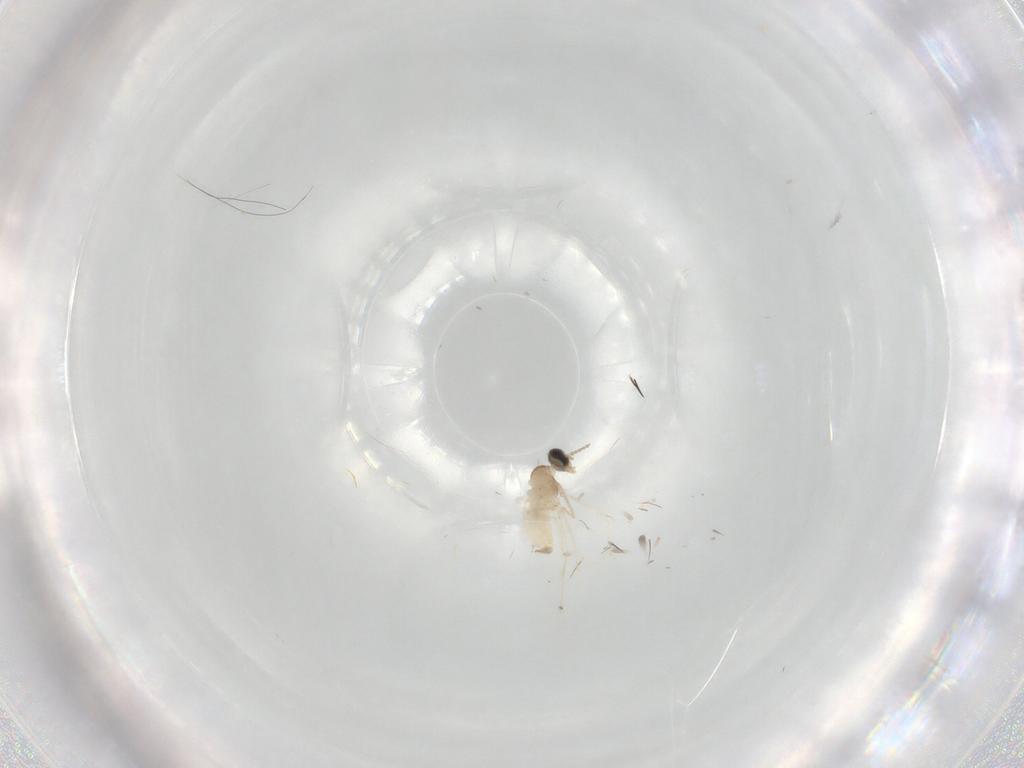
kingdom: Animalia
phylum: Arthropoda
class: Insecta
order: Diptera
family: Cecidomyiidae
